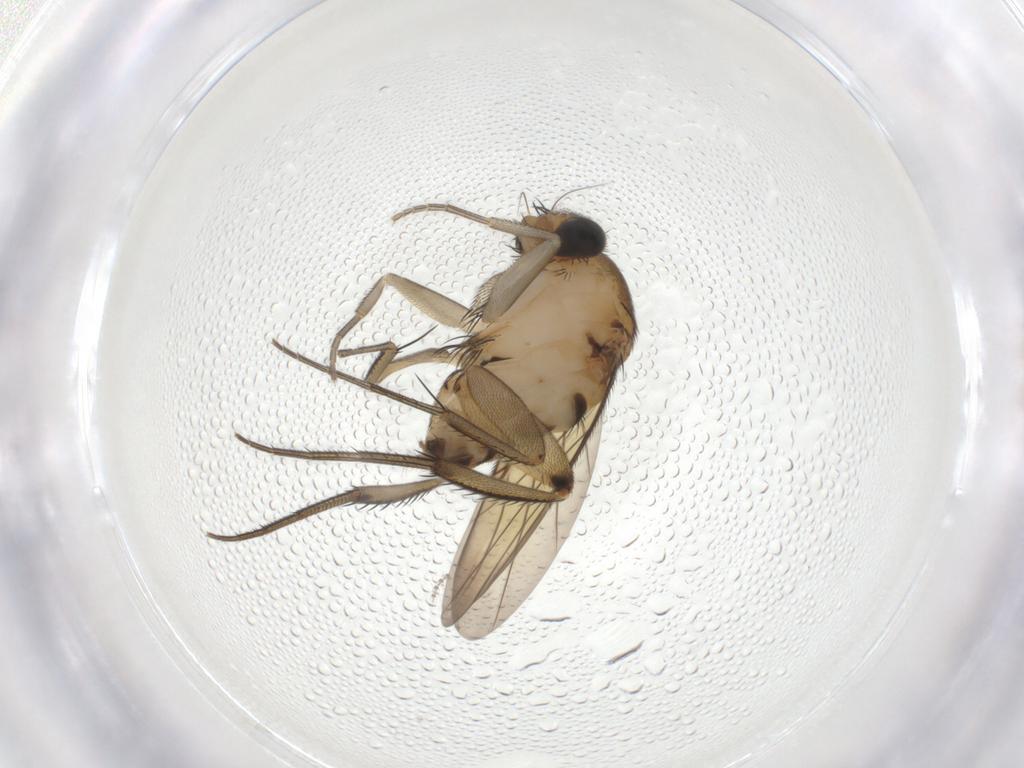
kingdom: Animalia
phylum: Arthropoda
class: Insecta
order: Diptera
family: Phoridae
